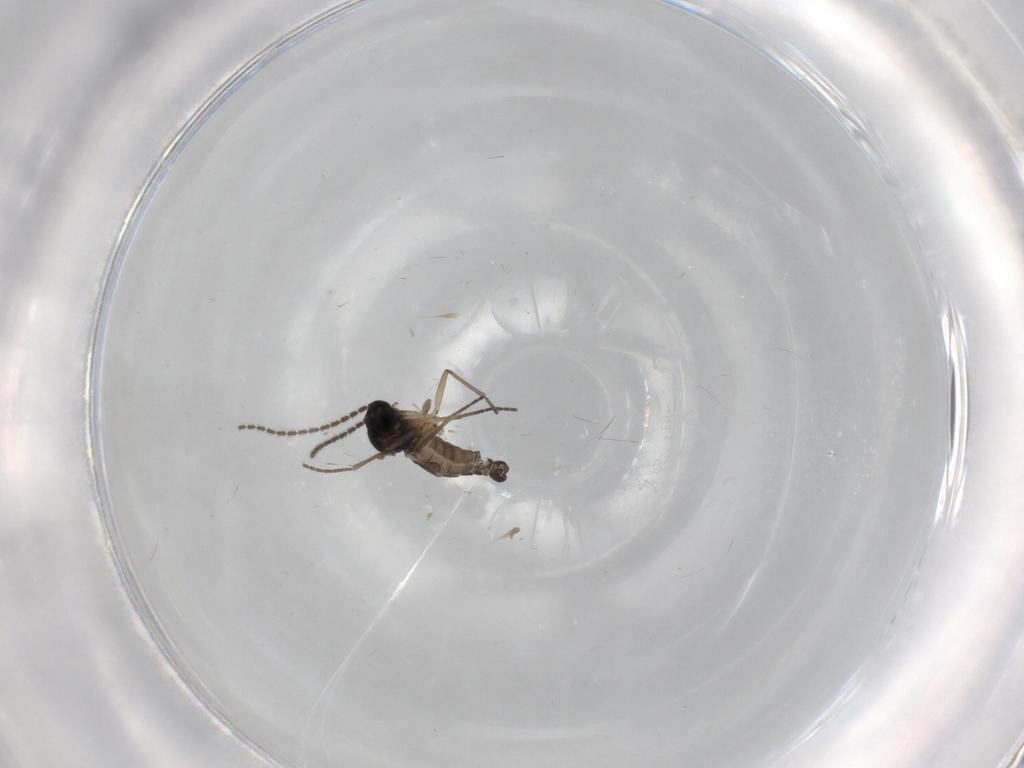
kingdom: Animalia
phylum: Arthropoda
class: Insecta
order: Diptera
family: Sciaridae
